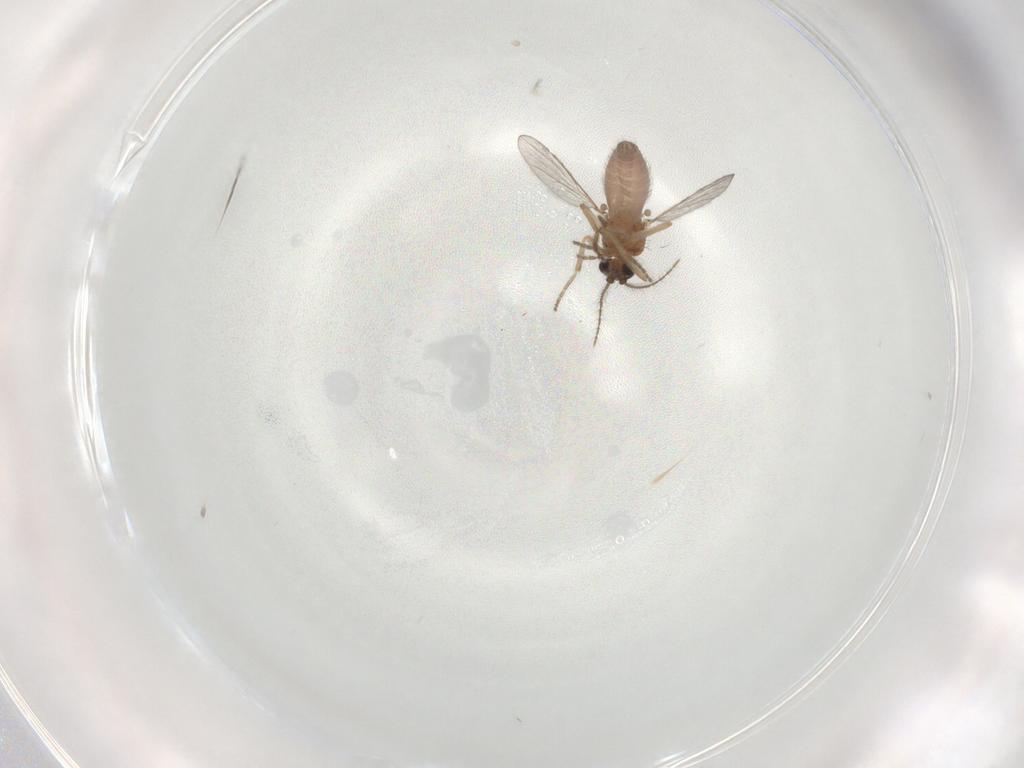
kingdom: Animalia
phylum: Arthropoda
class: Insecta
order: Diptera
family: Ceratopogonidae
